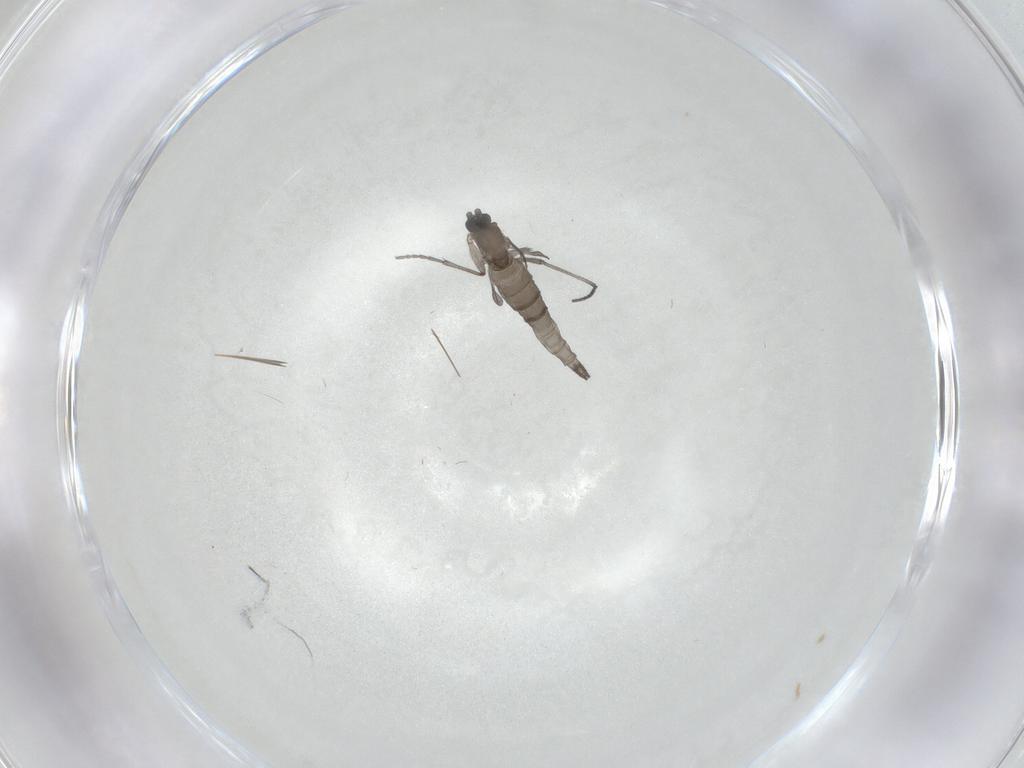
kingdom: Animalia
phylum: Arthropoda
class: Insecta
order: Diptera
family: Sciaridae
